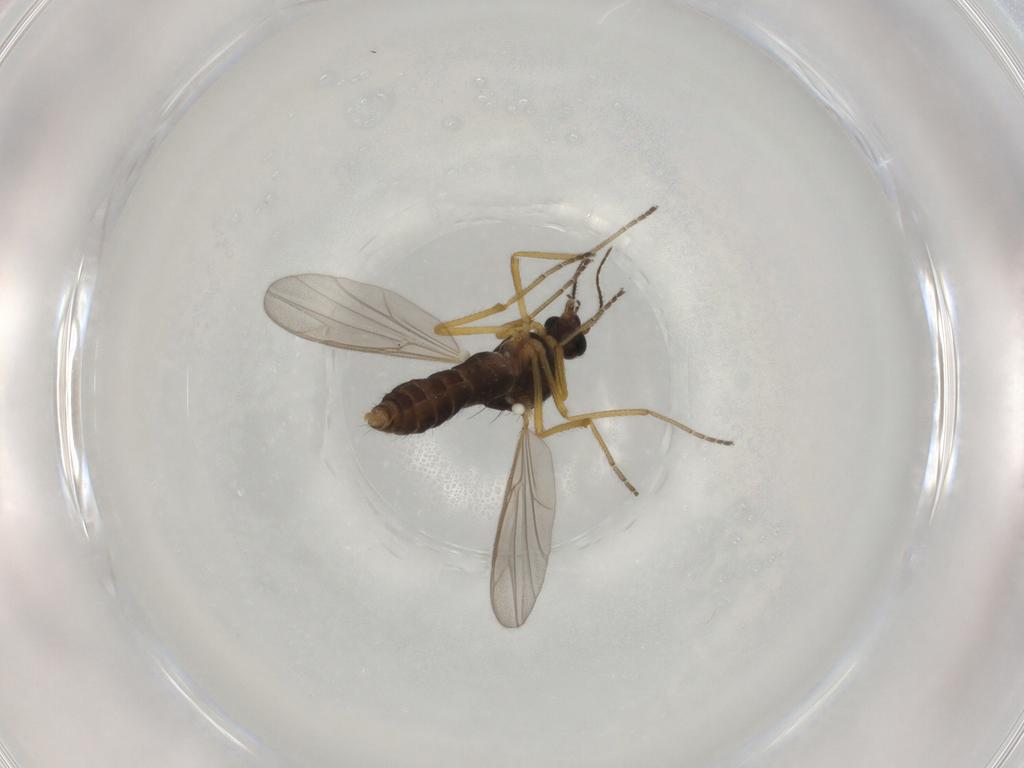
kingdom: Animalia
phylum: Arthropoda
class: Insecta
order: Diptera
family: Ceratopogonidae
